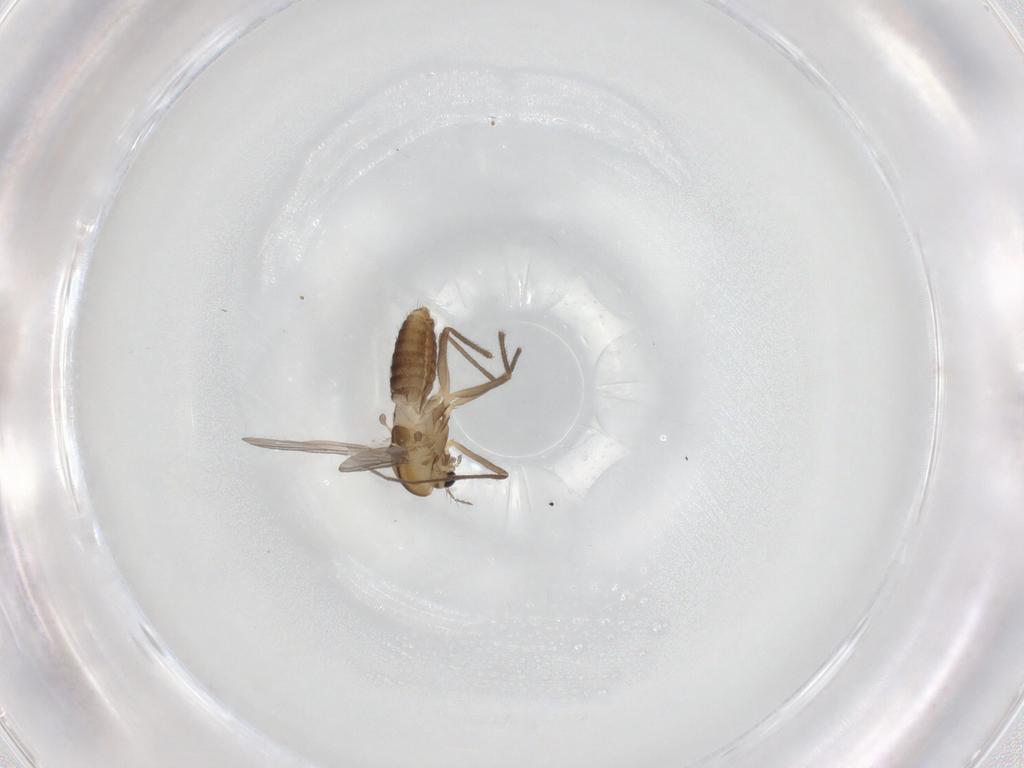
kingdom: Animalia
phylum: Arthropoda
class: Insecta
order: Diptera
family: Chironomidae
